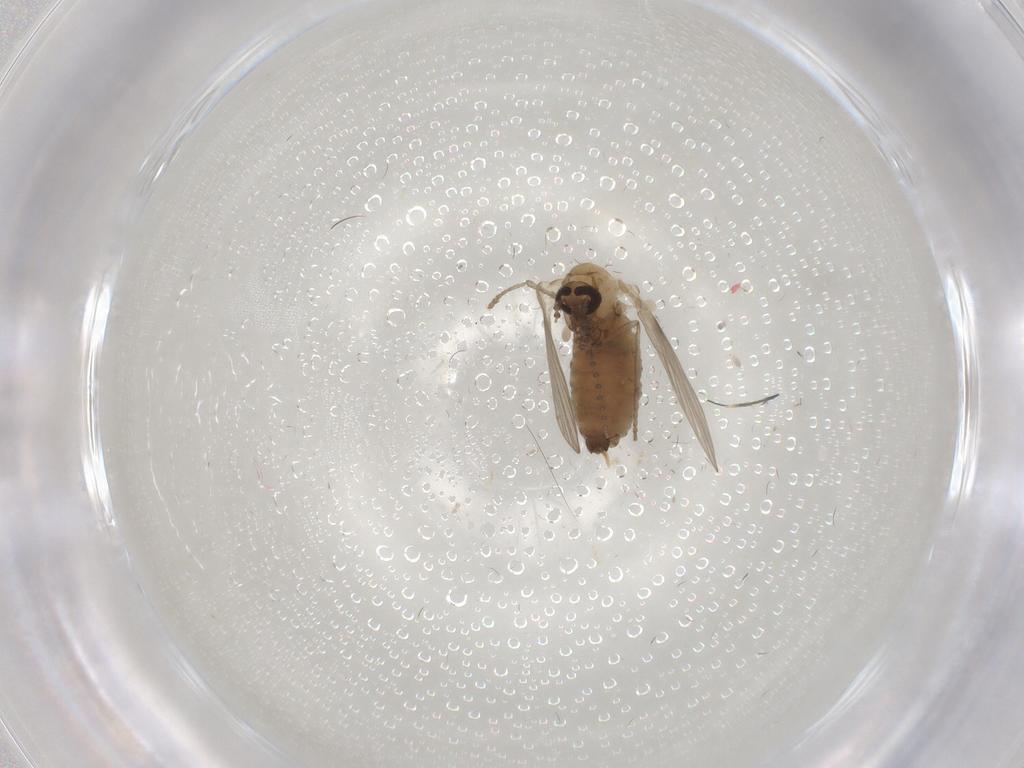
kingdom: Animalia
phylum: Arthropoda
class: Insecta
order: Diptera
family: Psychodidae
